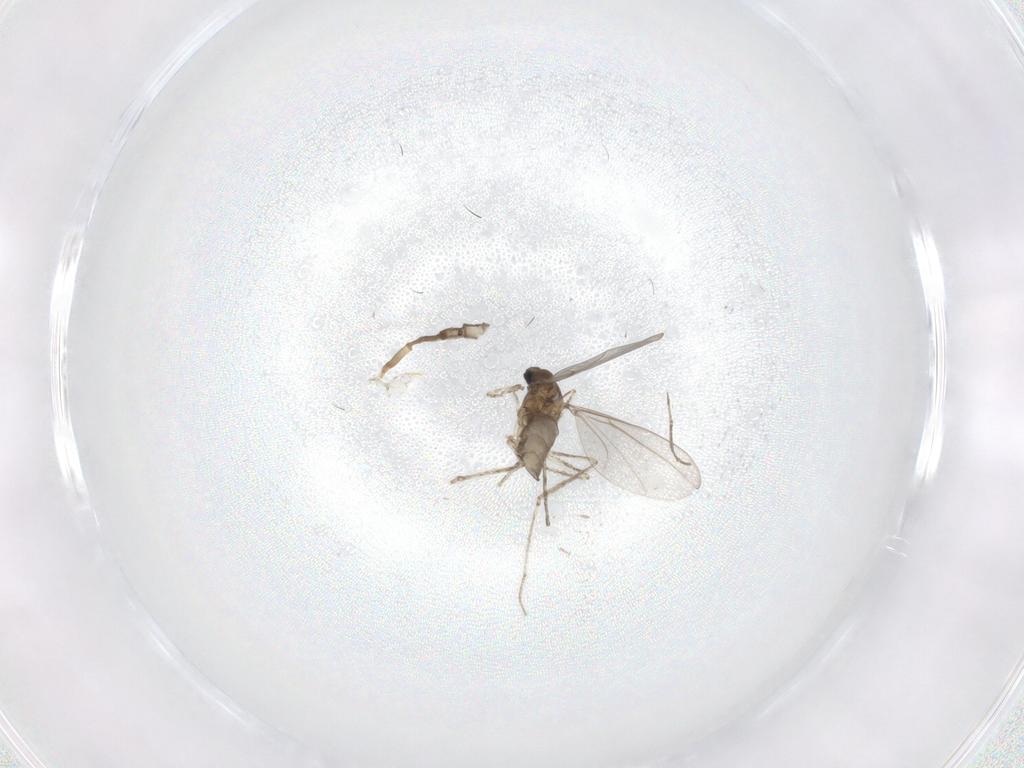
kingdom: Animalia
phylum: Arthropoda
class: Insecta
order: Diptera
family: Cecidomyiidae
